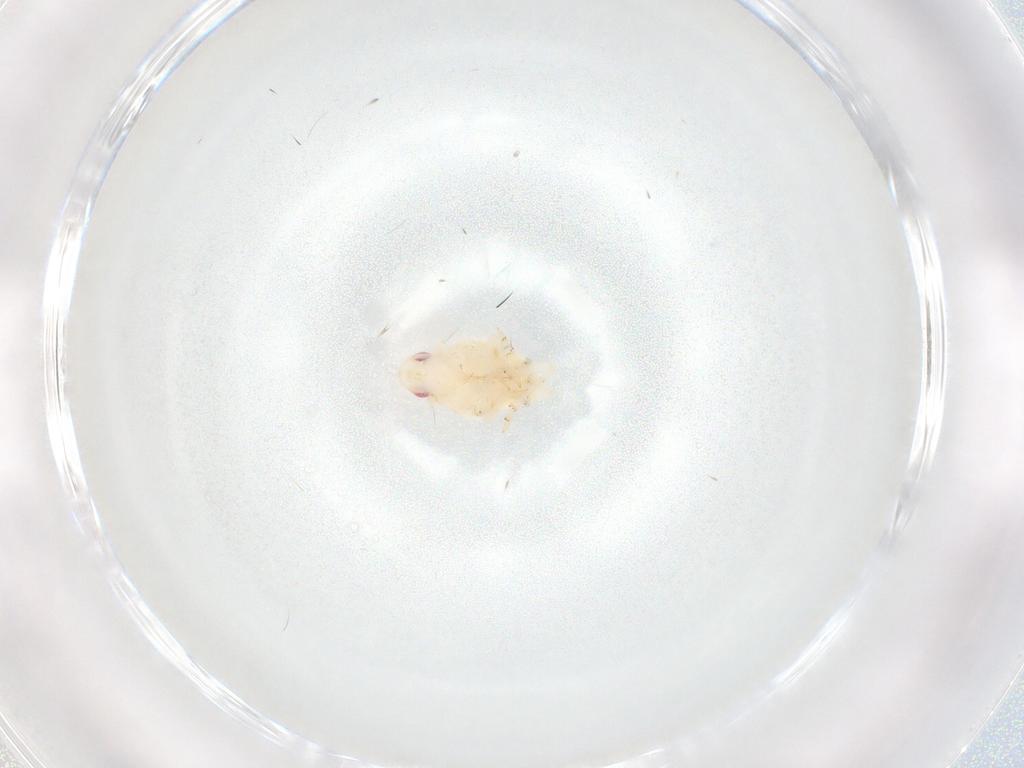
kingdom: Animalia
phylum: Arthropoda
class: Insecta
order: Hemiptera
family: Flatidae
